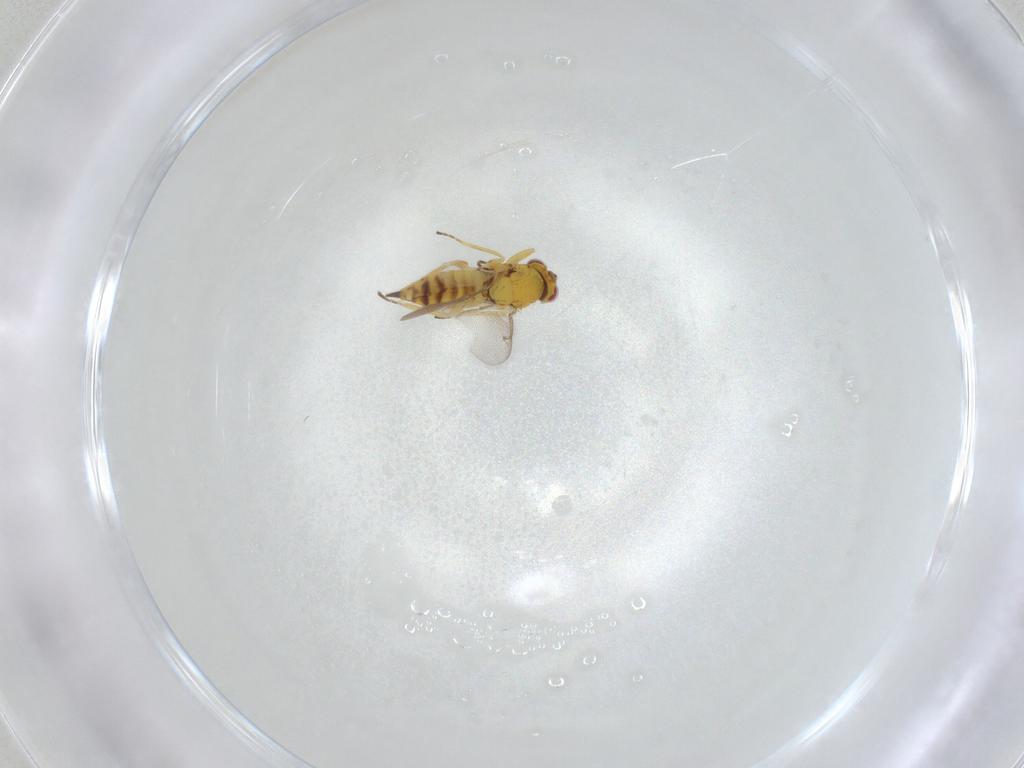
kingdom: Animalia
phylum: Arthropoda
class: Insecta
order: Hymenoptera
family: Eulophidae
